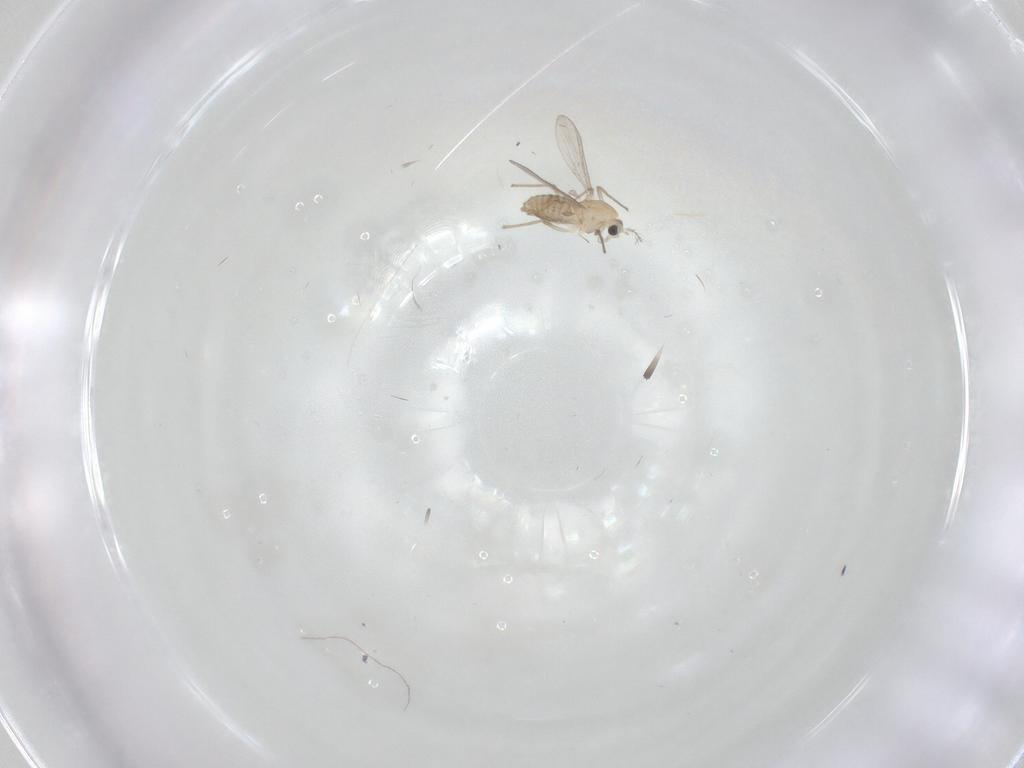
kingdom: Animalia
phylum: Arthropoda
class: Insecta
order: Diptera
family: Chironomidae
